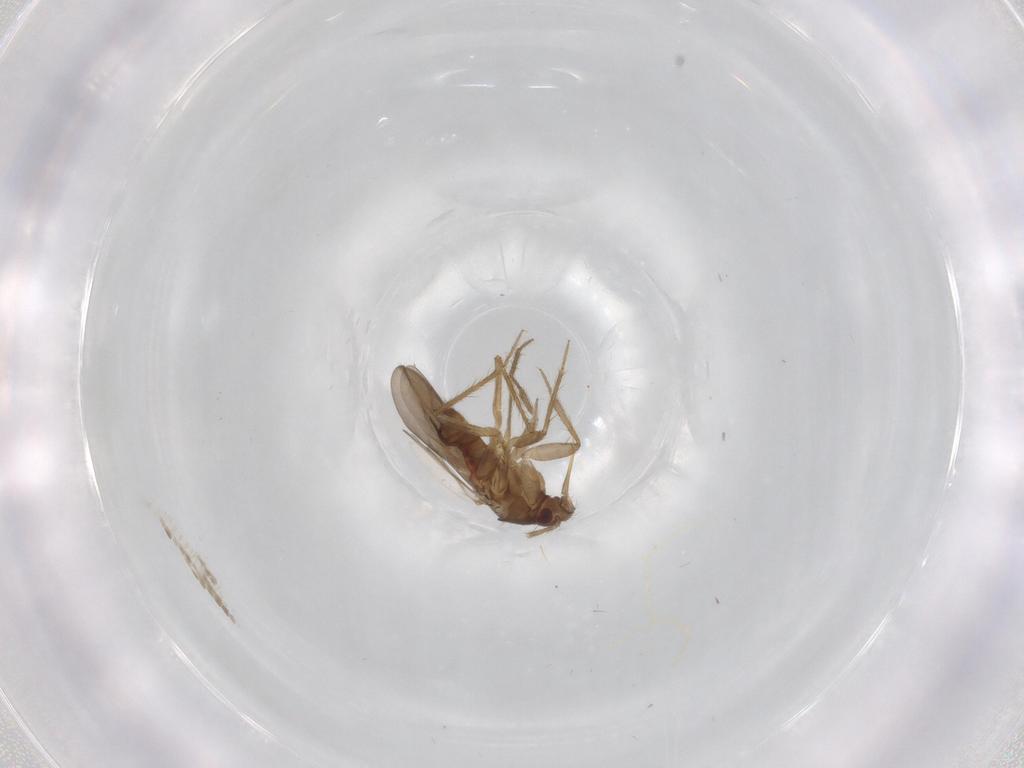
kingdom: Animalia
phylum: Arthropoda
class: Insecta
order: Hemiptera
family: Ceratocombidae
